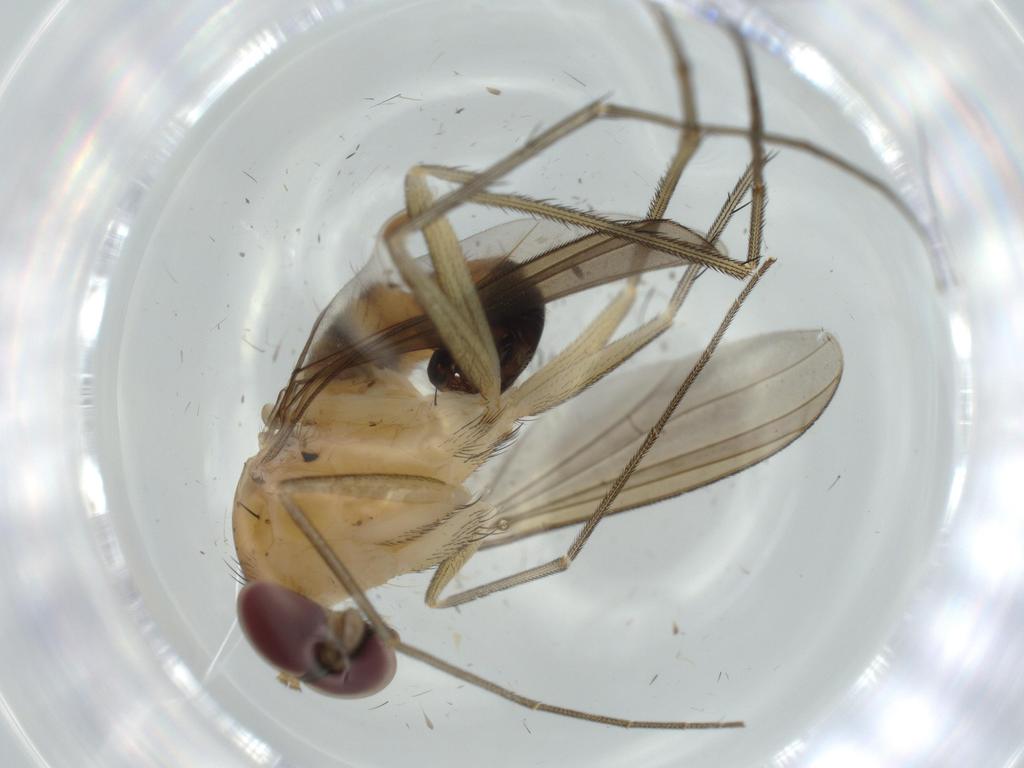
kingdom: Animalia
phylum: Arthropoda
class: Insecta
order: Diptera
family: Dolichopodidae
